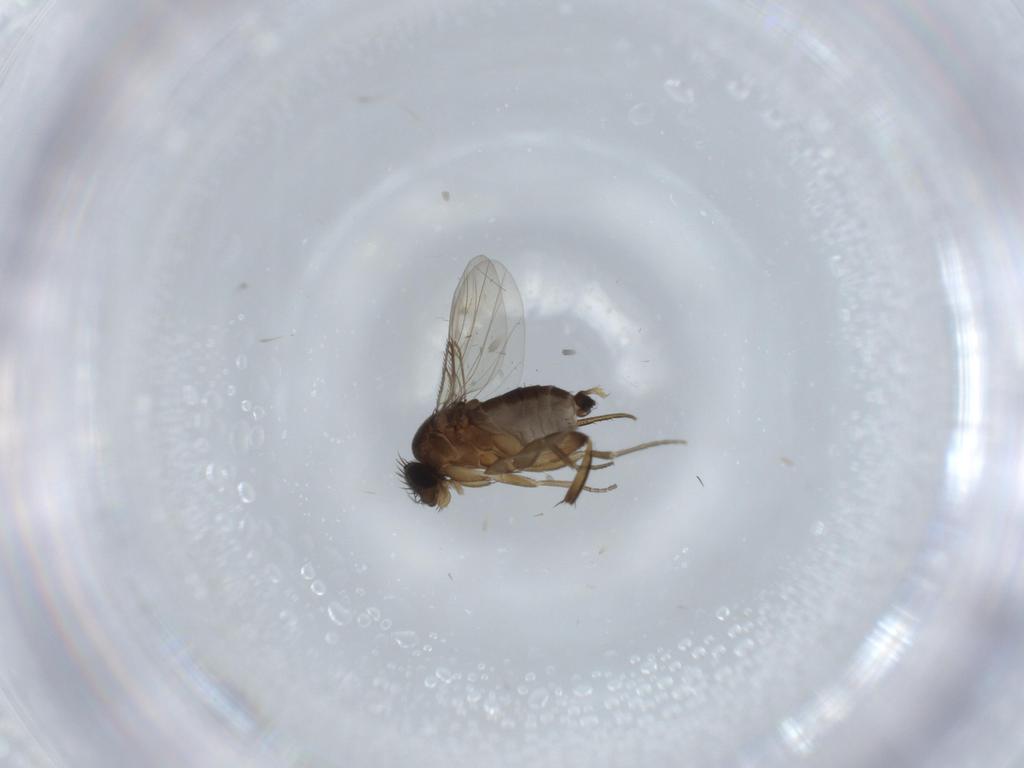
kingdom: Animalia
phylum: Arthropoda
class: Insecta
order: Diptera
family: Phoridae
